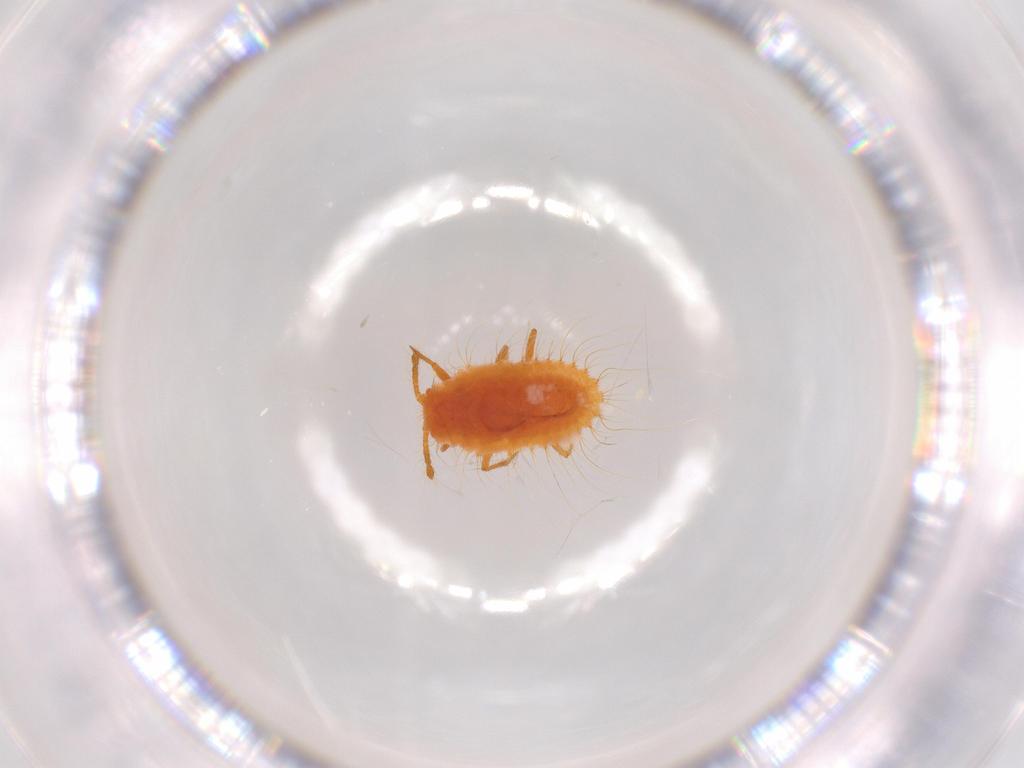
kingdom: Animalia
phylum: Arthropoda
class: Insecta
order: Hemiptera
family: Coccoidea_incertae_sedis
